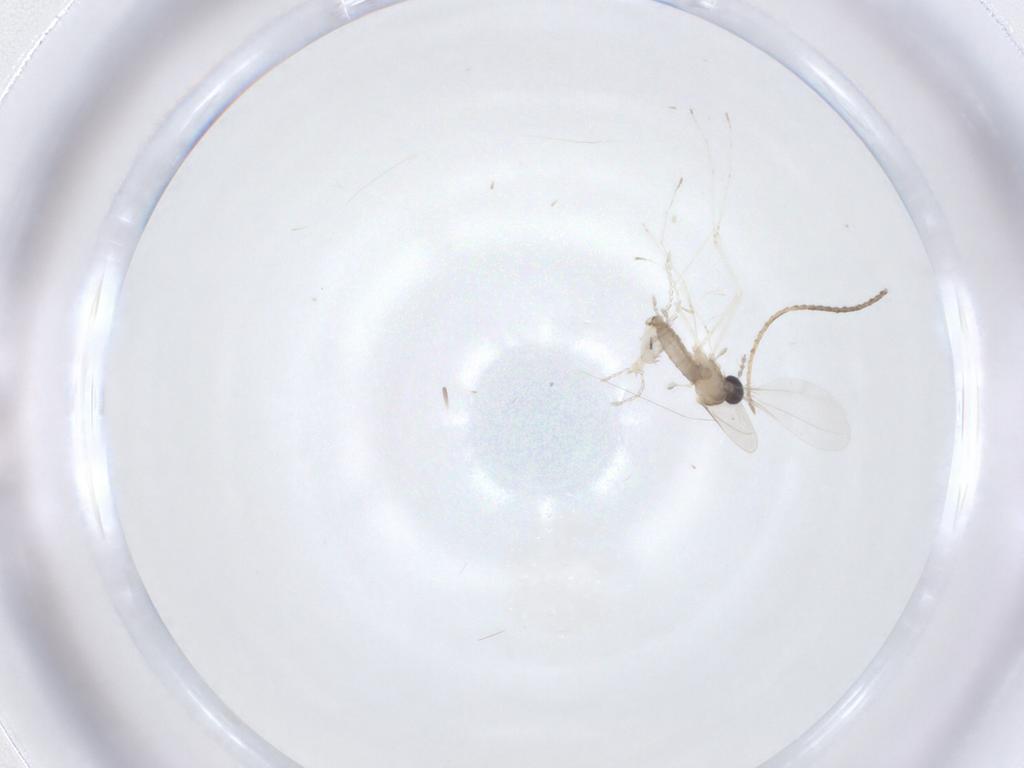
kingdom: Animalia
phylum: Arthropoda
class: Insecta
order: Diptera
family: Cecidomyiidae
